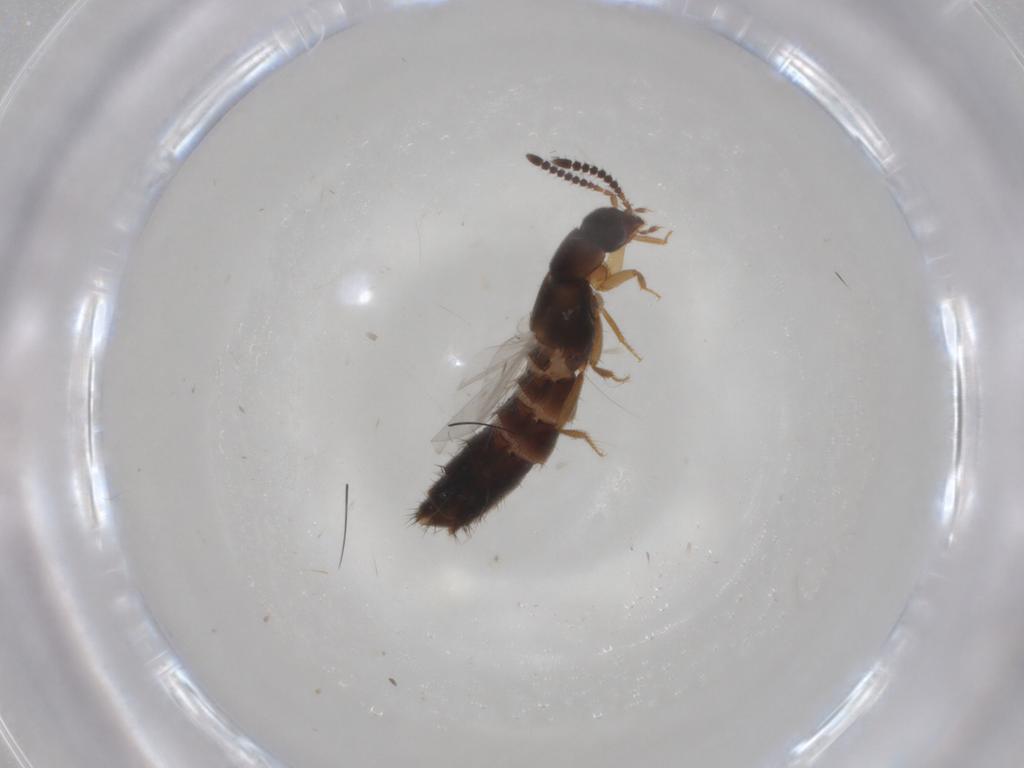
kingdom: Animalia
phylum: Arthropoda
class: Insecta
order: Coleoptera
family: Staphylinidae
